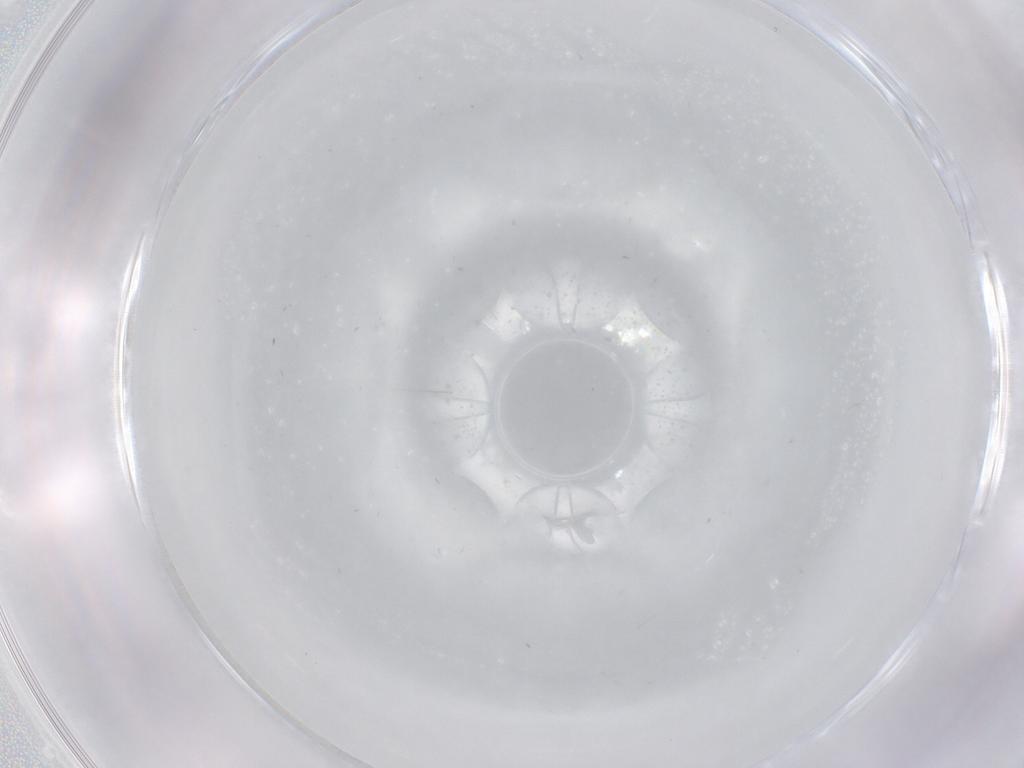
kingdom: Animalia
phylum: Arthropoda
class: Insecta
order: Diptera
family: Cecidomyiidae
